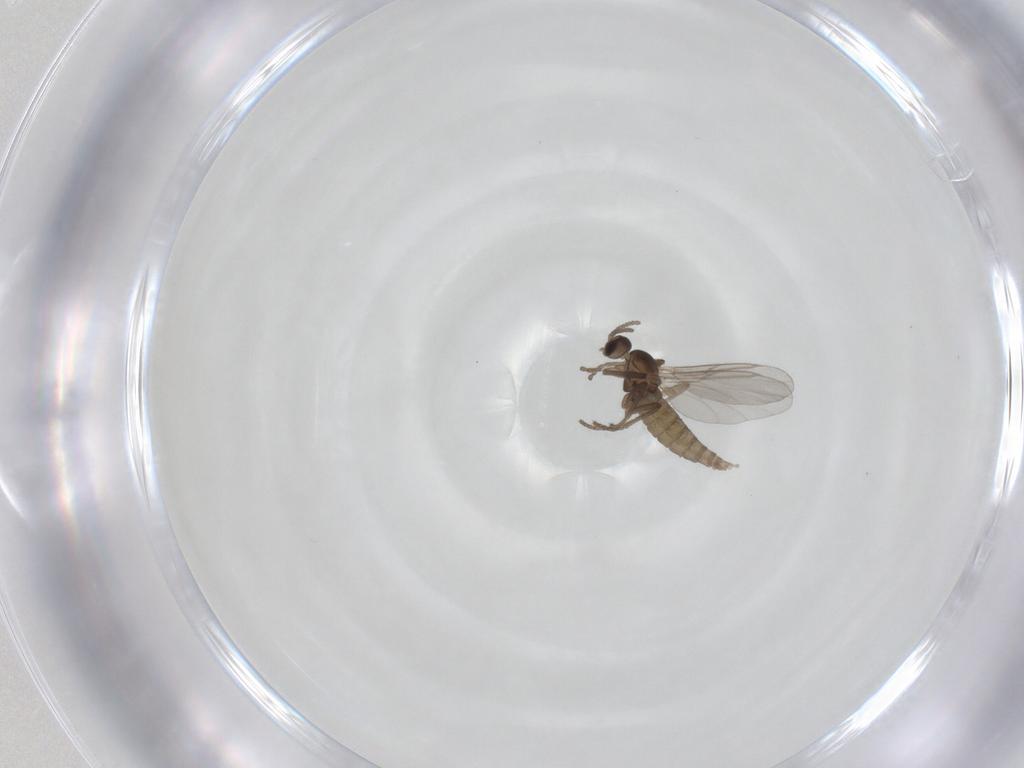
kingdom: Animalia
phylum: Arthropoda
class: Insecta
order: Diptera
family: Cecidomyiidae
